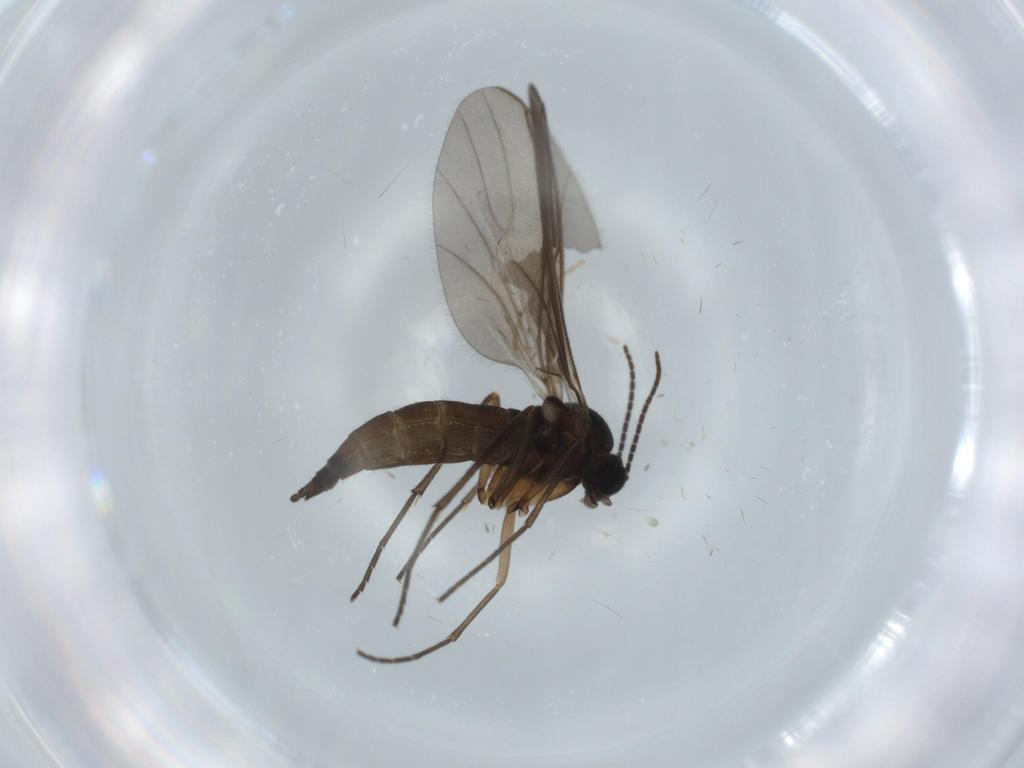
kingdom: Animalia
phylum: Arthropoda
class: Insecta
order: Diptera
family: Sciaridae
